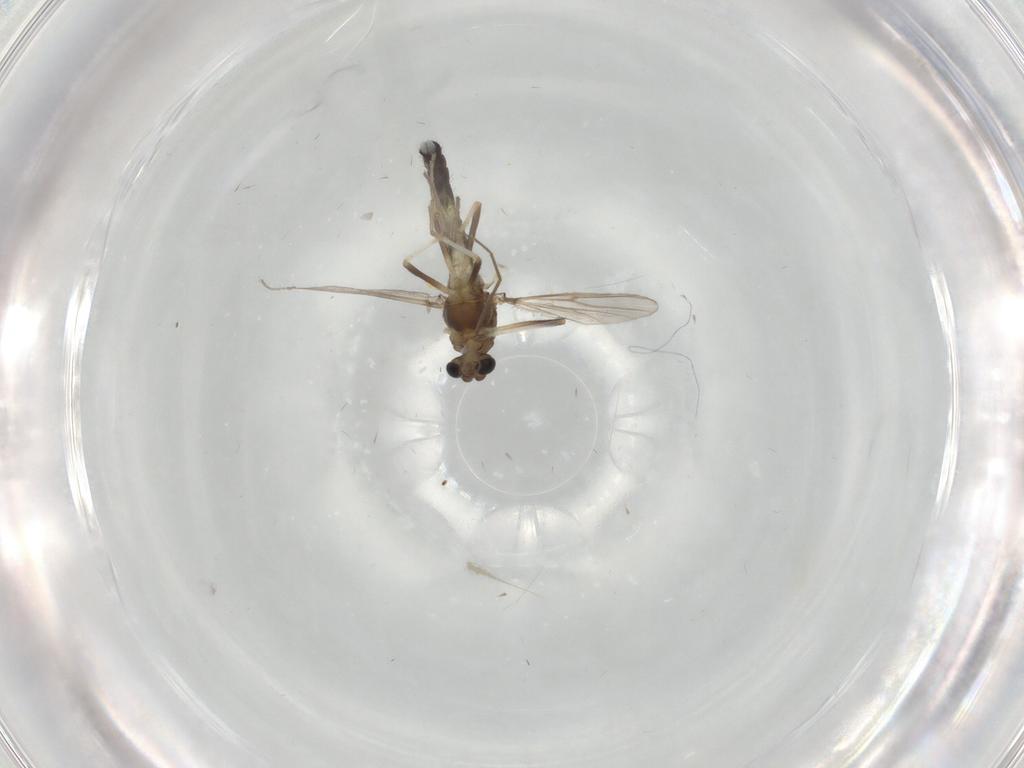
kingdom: Animalia
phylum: Arthropoda
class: Insecta
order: Diptera
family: Chironomidae
